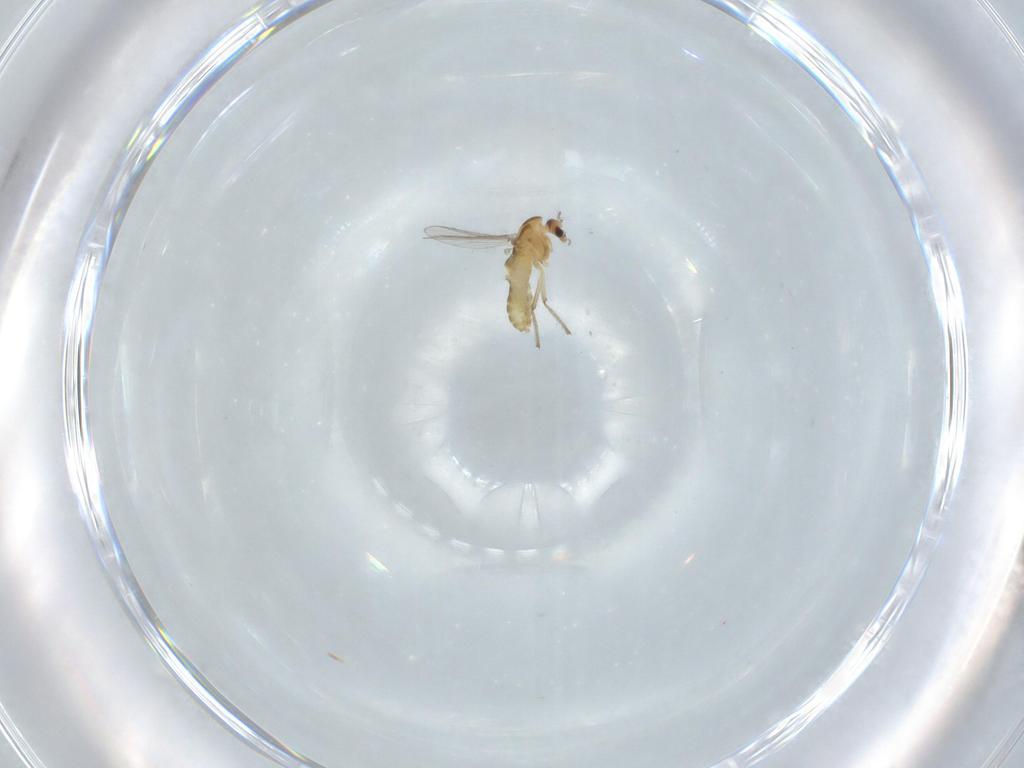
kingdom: Animalia
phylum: Arthropoda
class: Insecta
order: Diptera
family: Chironomidae
